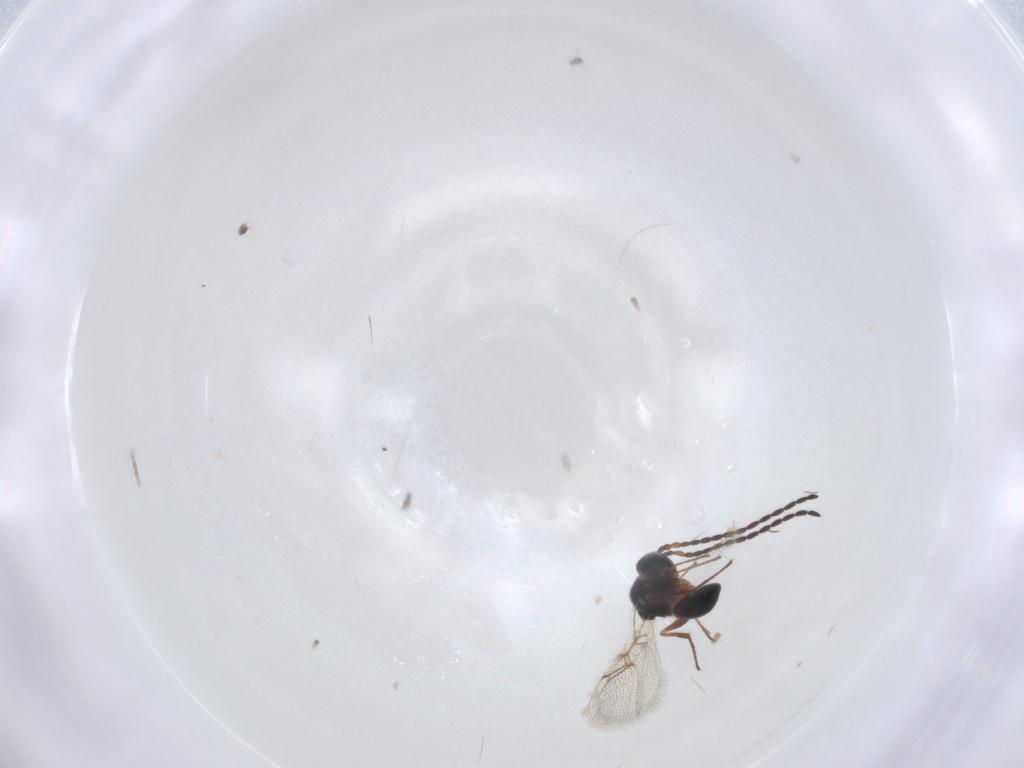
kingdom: Animalia
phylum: Arthropoda
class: Insecta
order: Hymenoptera
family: Figitidae
